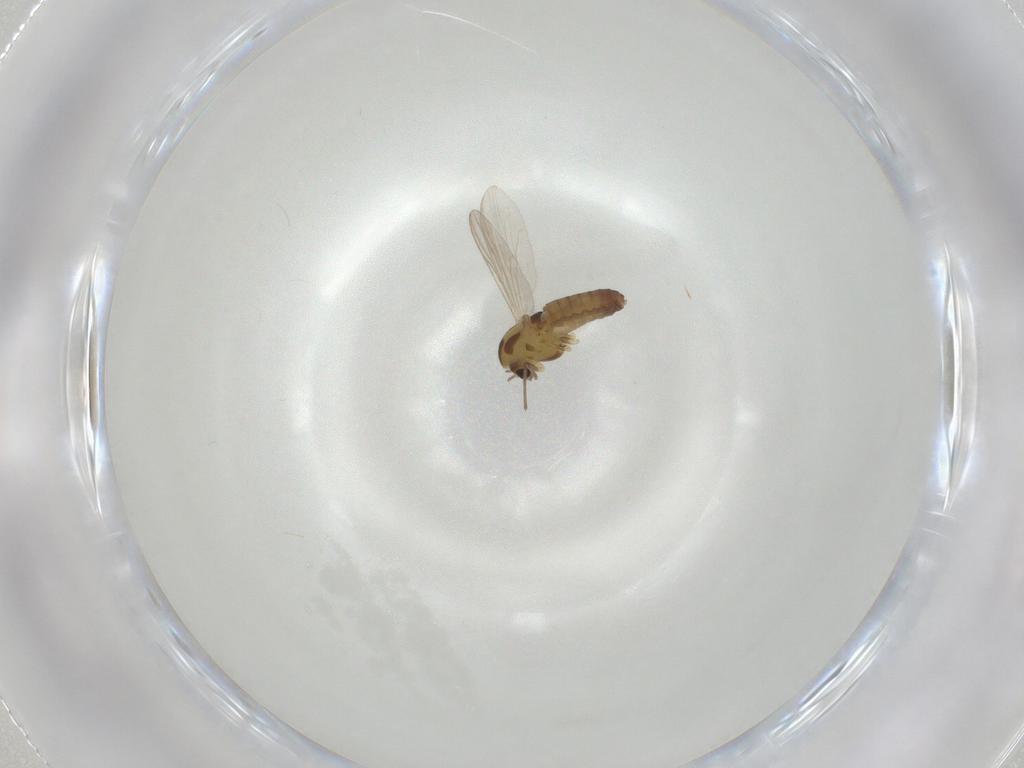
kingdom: Animalia
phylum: Arthropoda
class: Insecta
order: Diptera
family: Chironomidae
